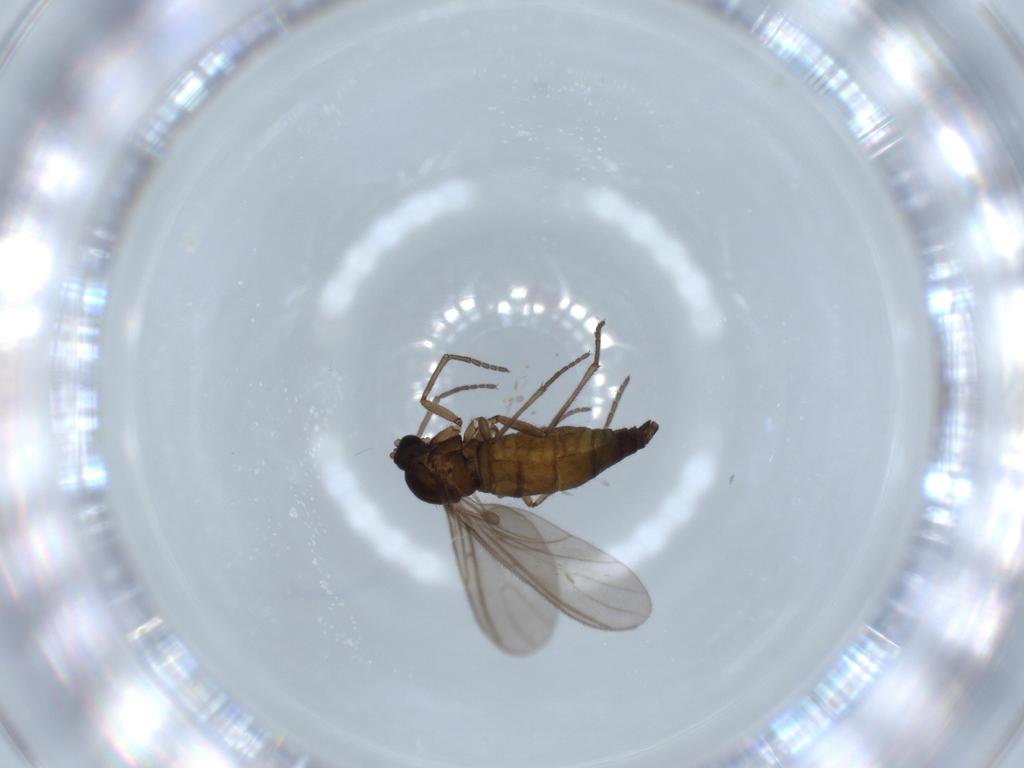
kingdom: Animalia
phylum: Arthropoda
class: Insecta
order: Diptera
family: Sciaridae
